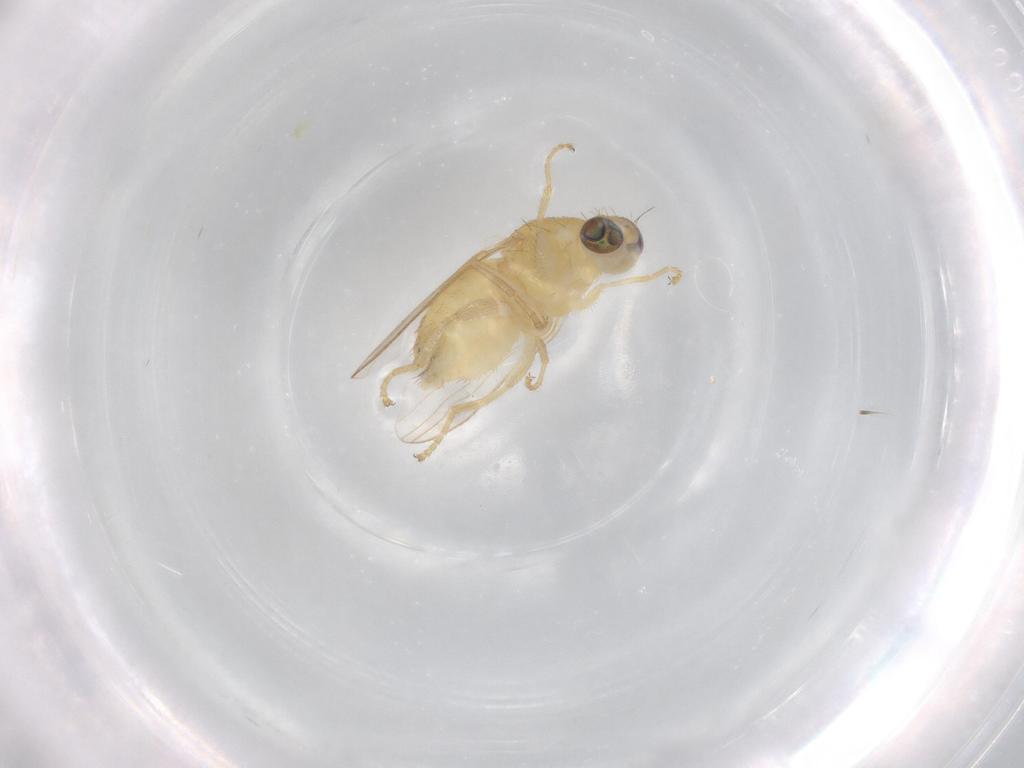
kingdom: Animalia
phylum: Arthropoda
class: Insecta
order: Diptera
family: Chyromyidae
